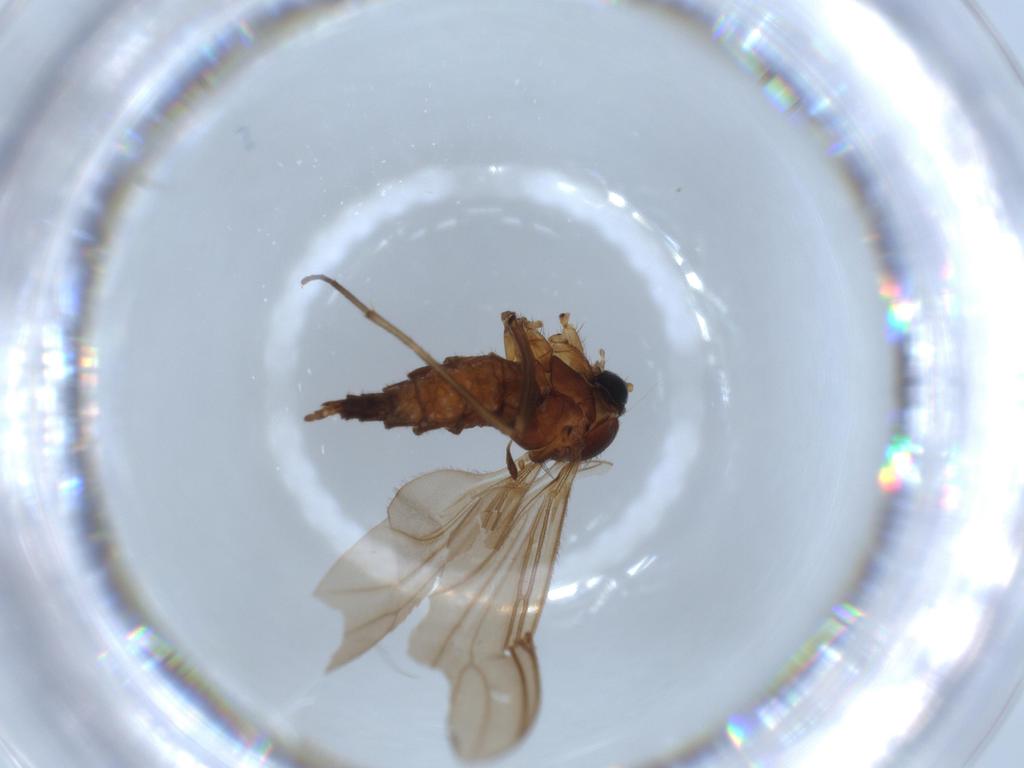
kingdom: Animalia
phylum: Arthropoda
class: Insecta
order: Diptera
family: Sciaridae
